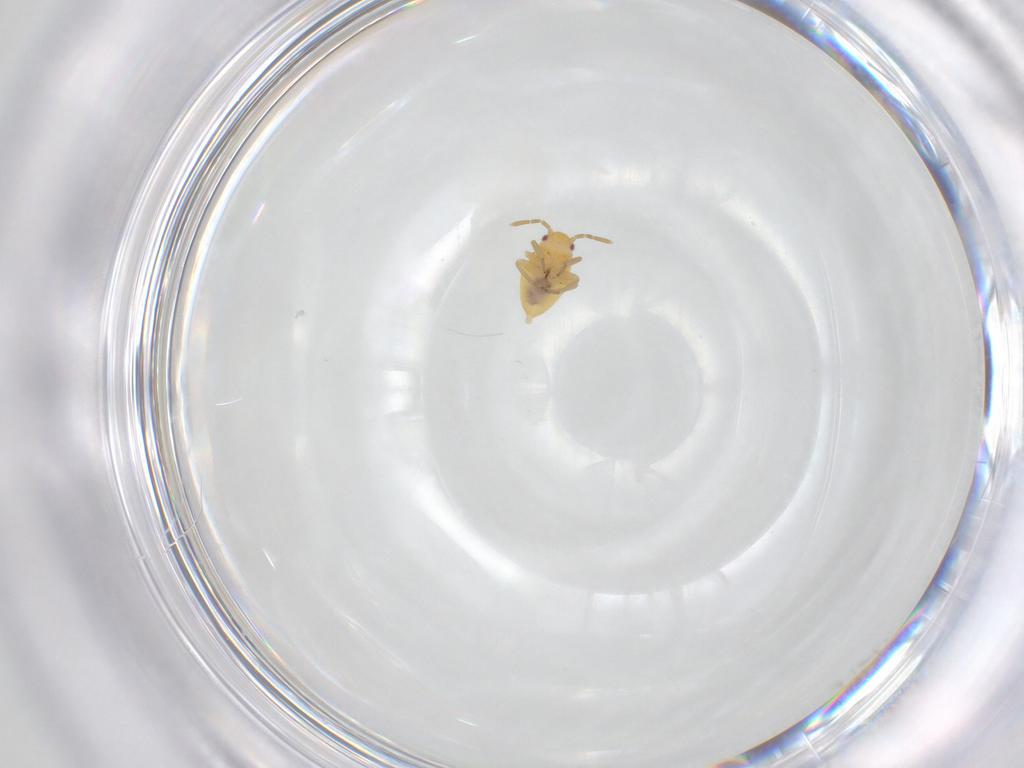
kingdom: Animalia
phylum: Arthropoda
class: Insecta
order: Hemiptera
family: Miridae
